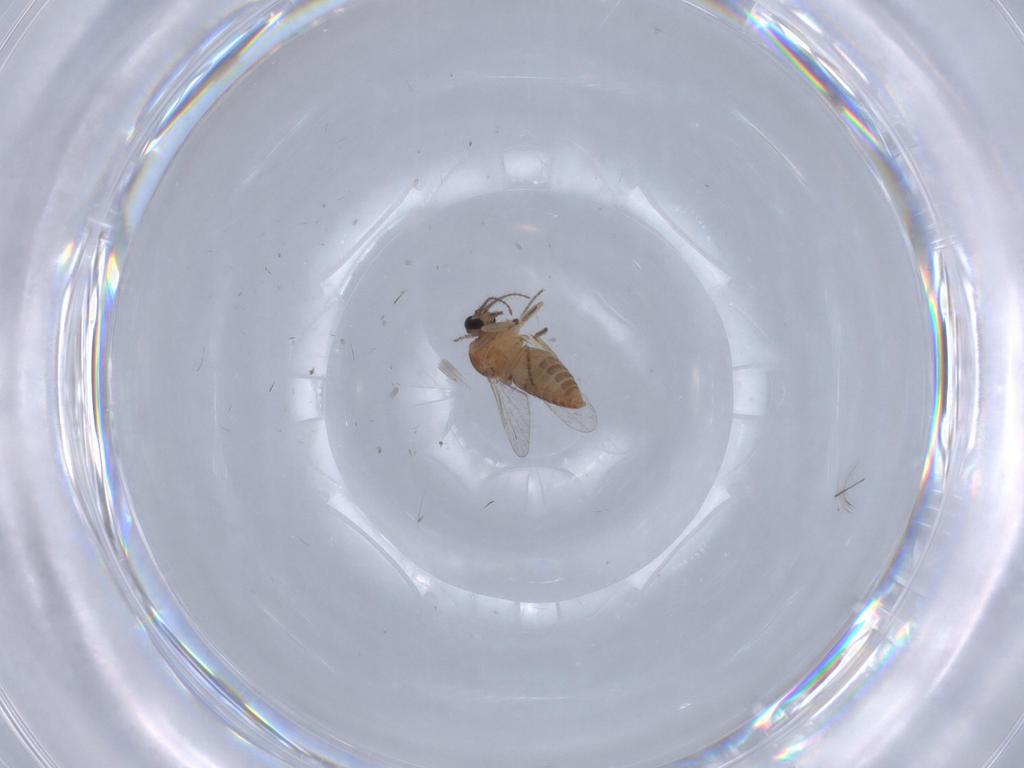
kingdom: Animalia
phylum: Arthropoda
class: Insecta
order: Diptera
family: Ceratopogonidae
